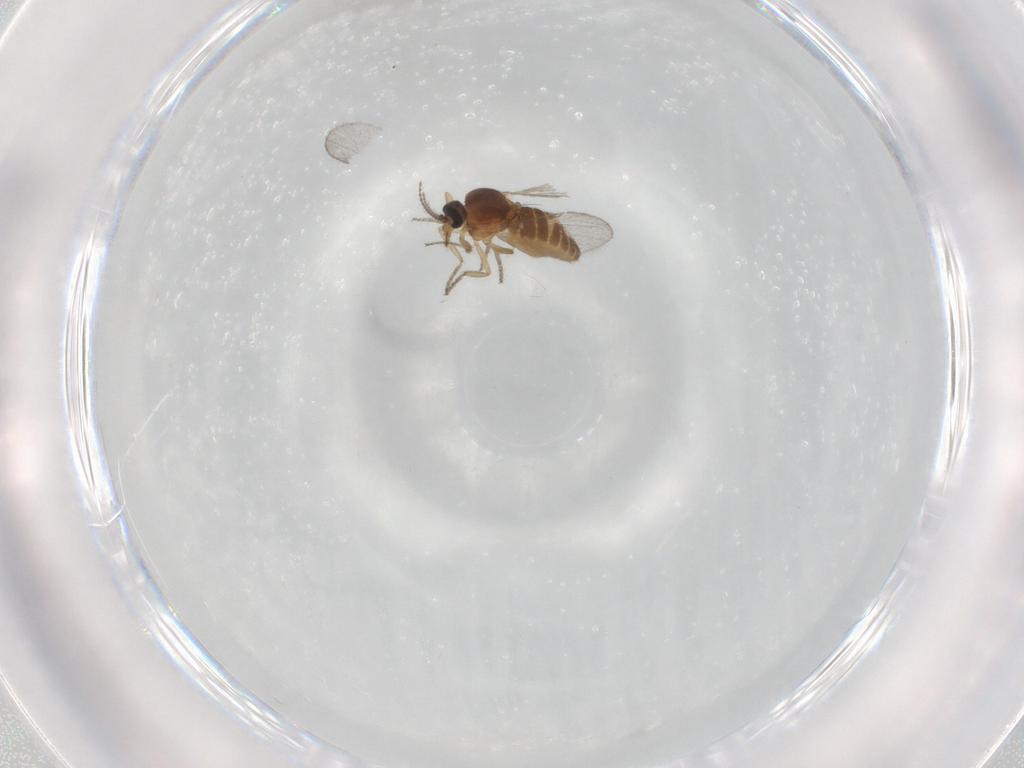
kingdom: Animalia
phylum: Arthropoda
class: Insecta
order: Diptera
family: Ceratopogonidae
